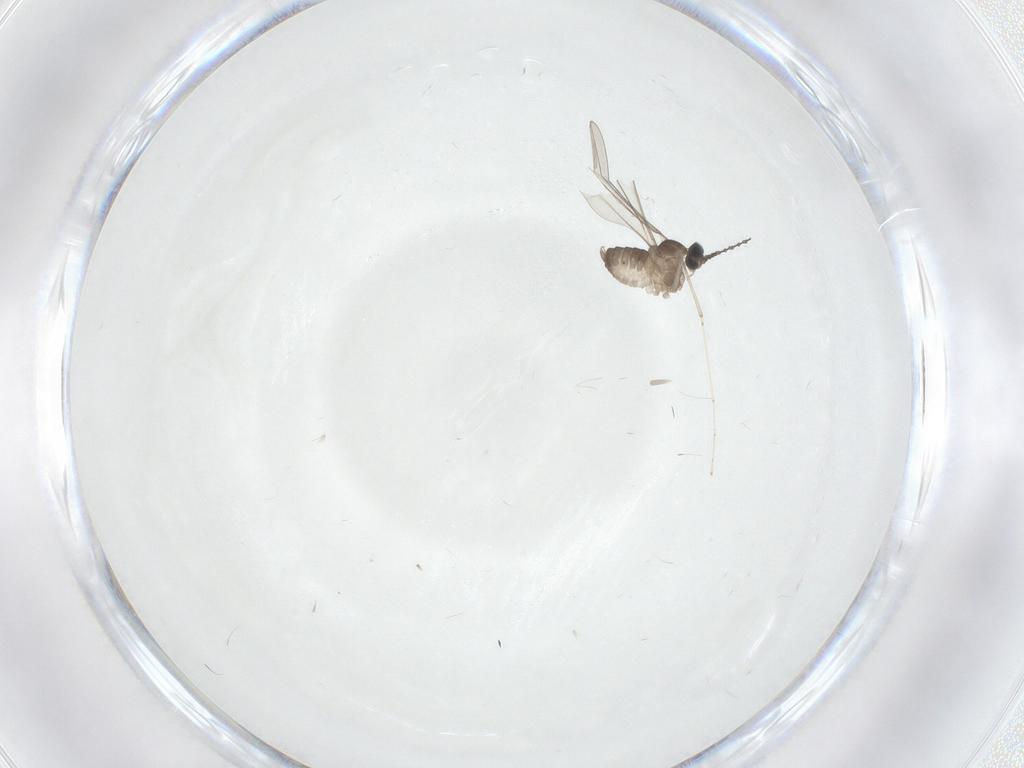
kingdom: Animalia
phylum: Arthropoda
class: Insecta
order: Diptera
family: Cecidomyiidae
